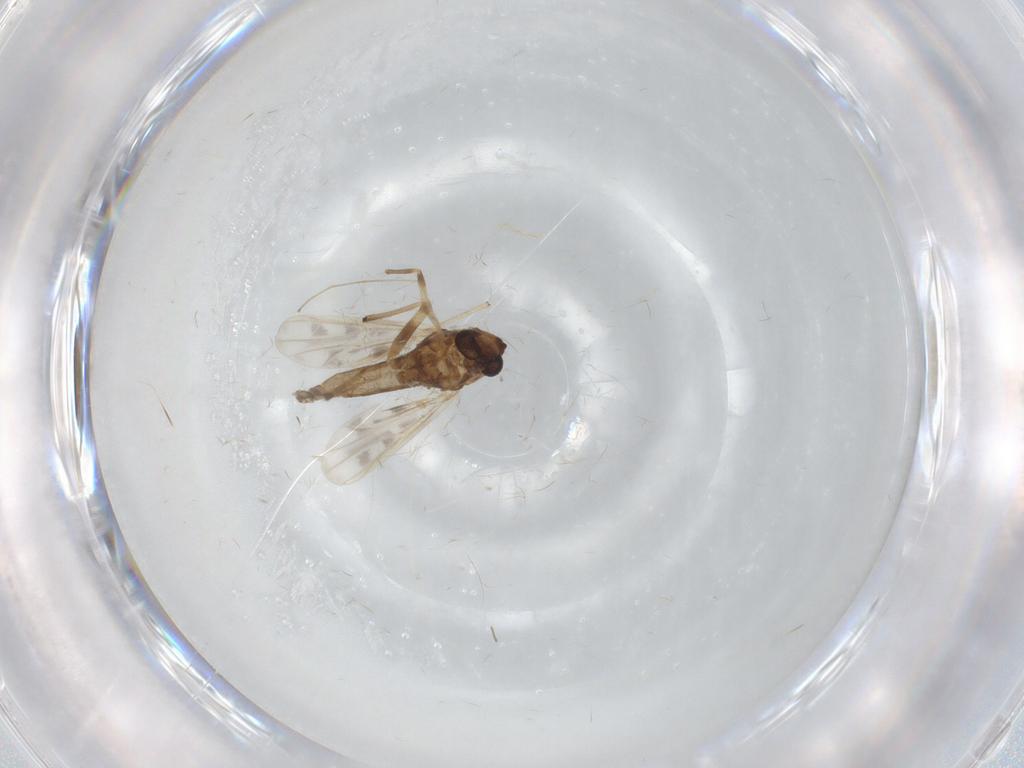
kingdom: Animalia
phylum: Arthropoda
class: Insecta
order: Diptera
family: Chironomidae
